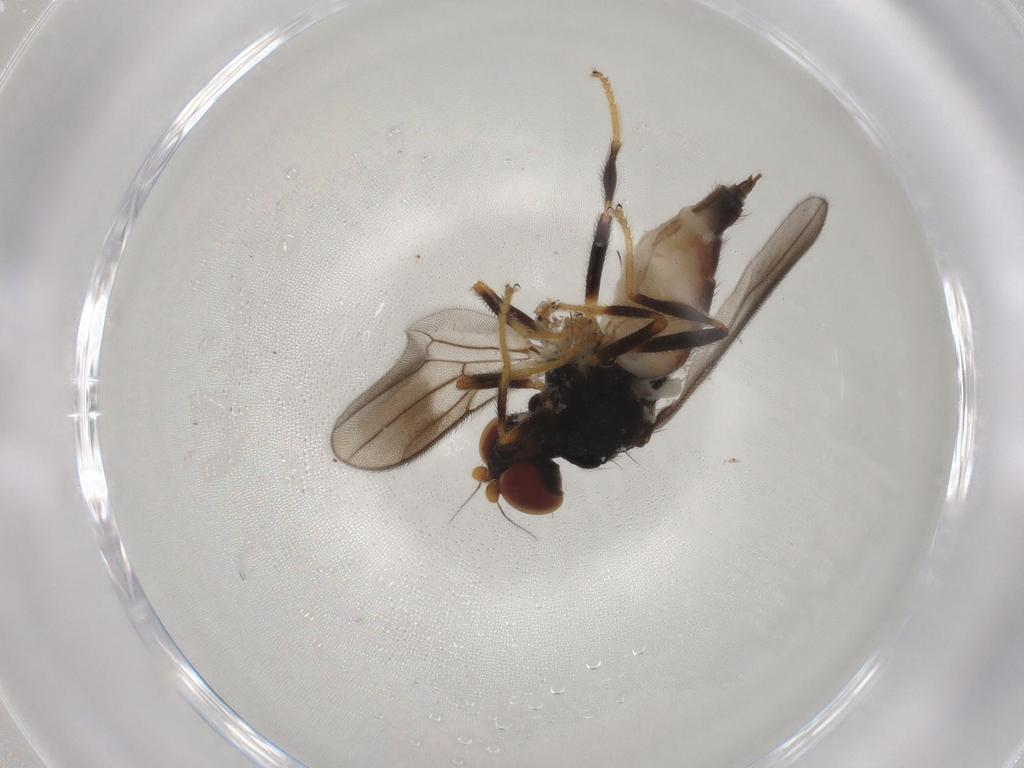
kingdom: Animalia
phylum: Arthropoda
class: Insecta
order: Diptera
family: Chloropidae
